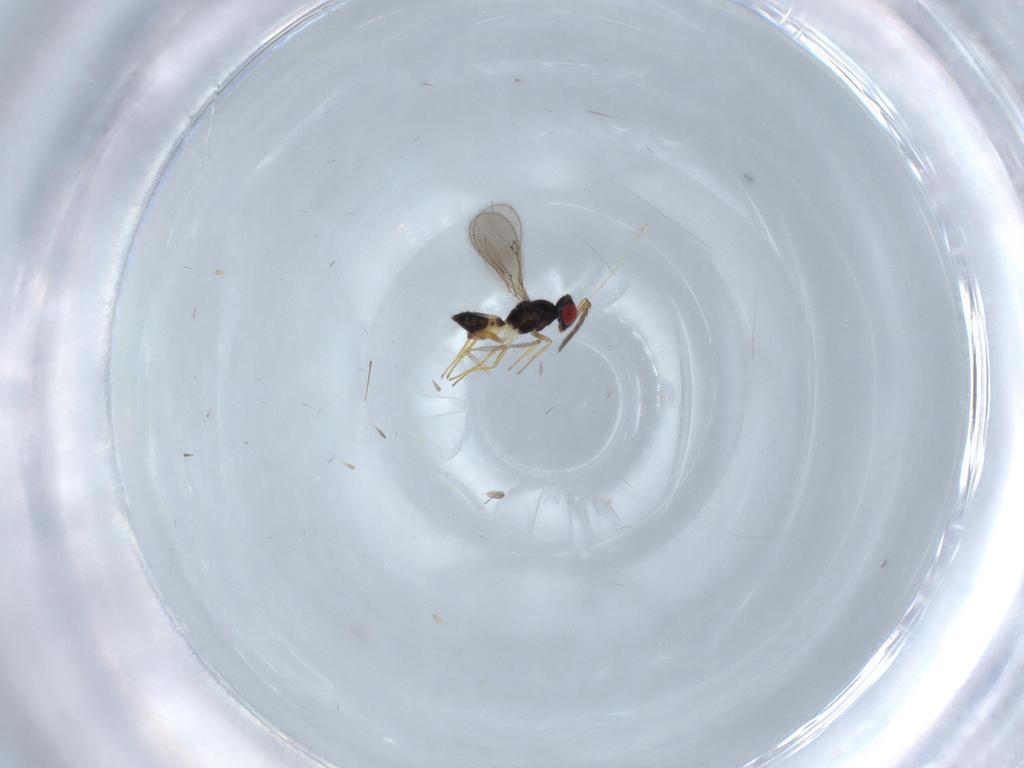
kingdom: Animalia
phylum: Arthropoda
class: Insecta
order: Hymenoptera
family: Eulophidae
